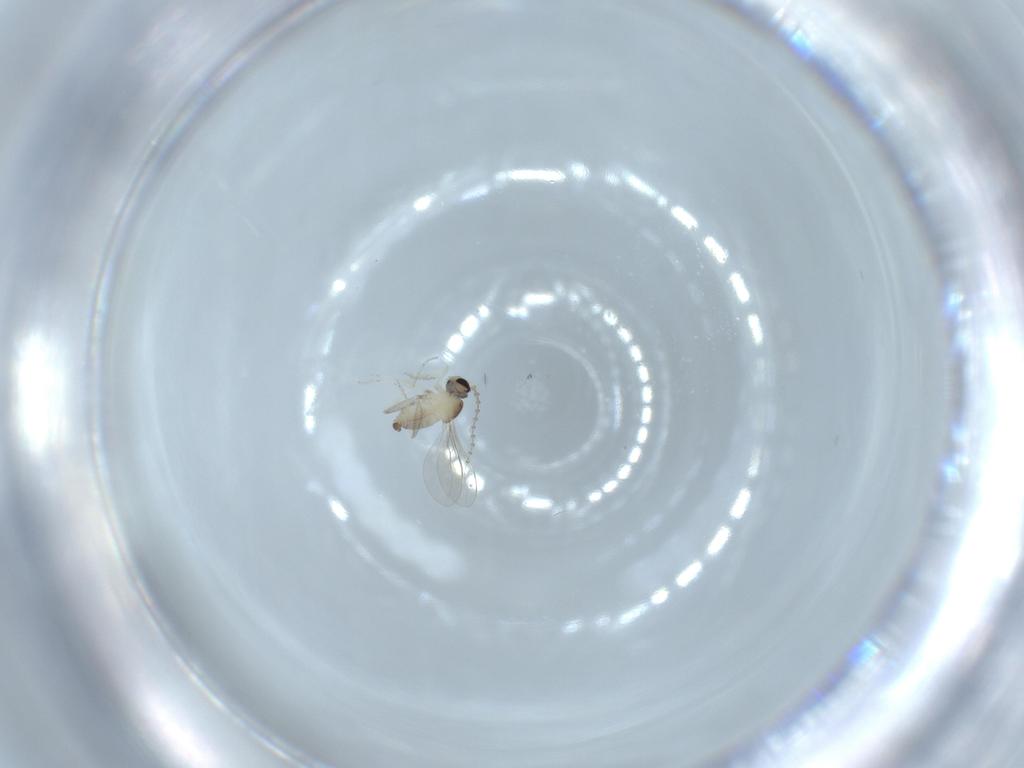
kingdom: Animalia
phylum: Arthropoda
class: Insecta
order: Diptera
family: Cecidomyiidae
